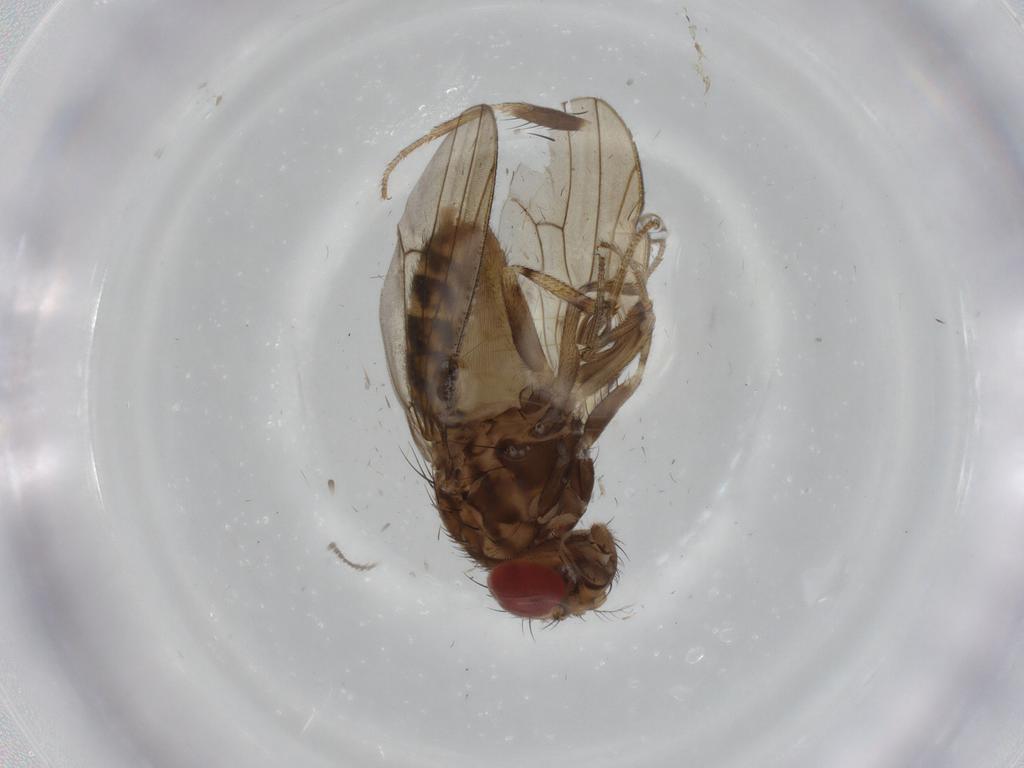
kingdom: Animalia
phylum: Arthropoda
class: Insecta
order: Diptera
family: Drosophilidae
